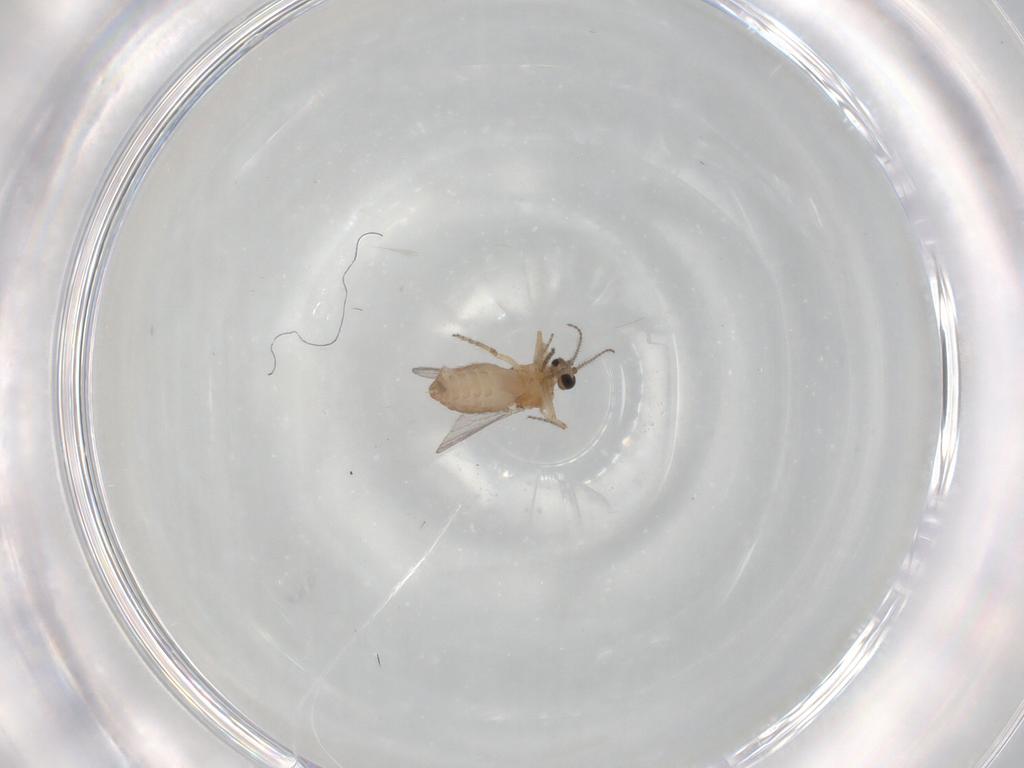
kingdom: Animalia
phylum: Arthropoda
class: Insecta
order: Diptera
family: Ceratopogonidae
